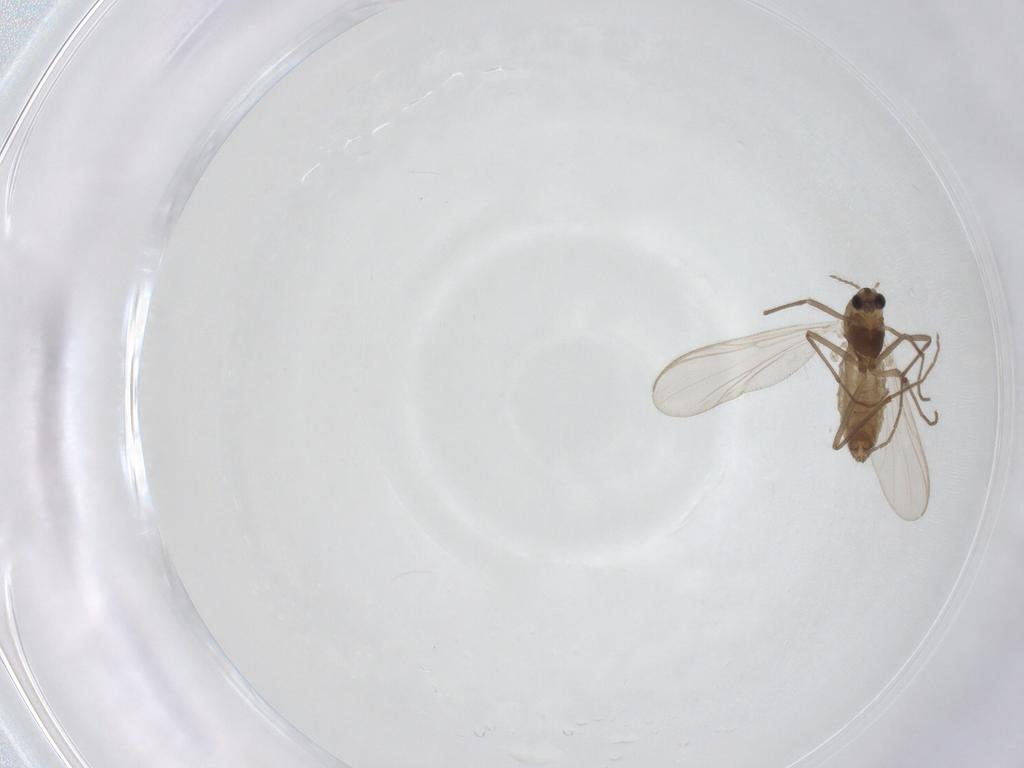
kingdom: Animalia
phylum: Arthropoda
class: Insecta
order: Diptera
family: Chironomidae
